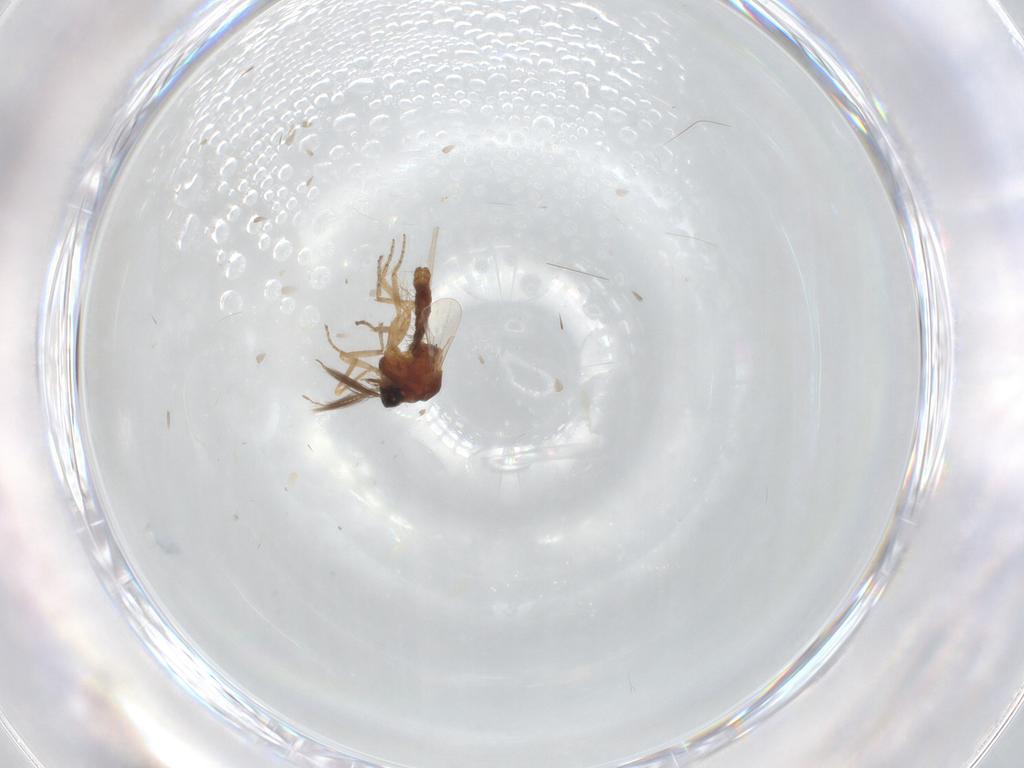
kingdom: Animalia
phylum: Arthropoda
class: Insecta
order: Diptera
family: Ceratopogonidae
